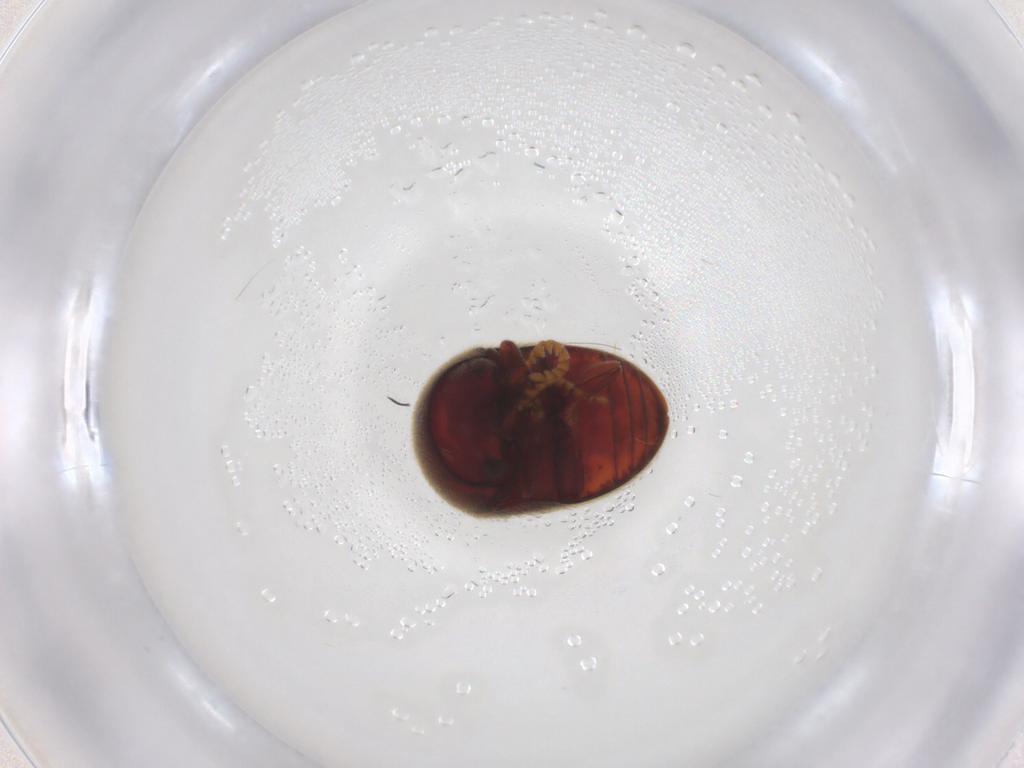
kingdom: Animalia
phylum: Arthropoda
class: Insecta
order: Coleoptera
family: Ptinidae
